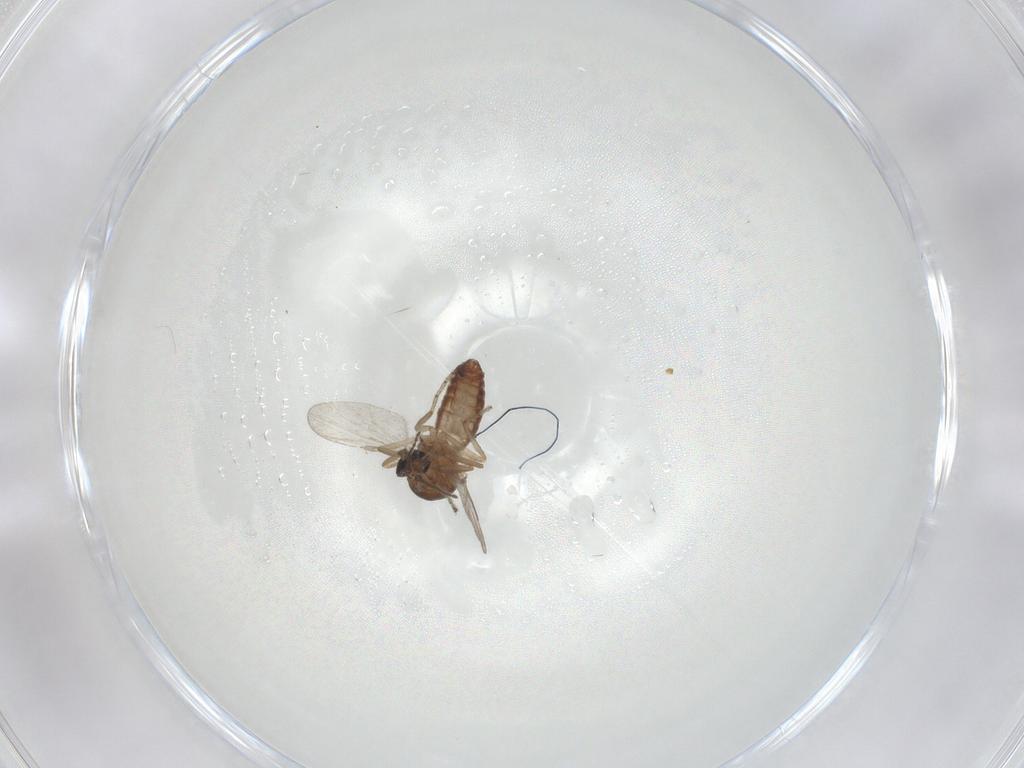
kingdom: Animalia
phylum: Arthropoda
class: Insecta
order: Diptera
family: Ceratopogonidae
